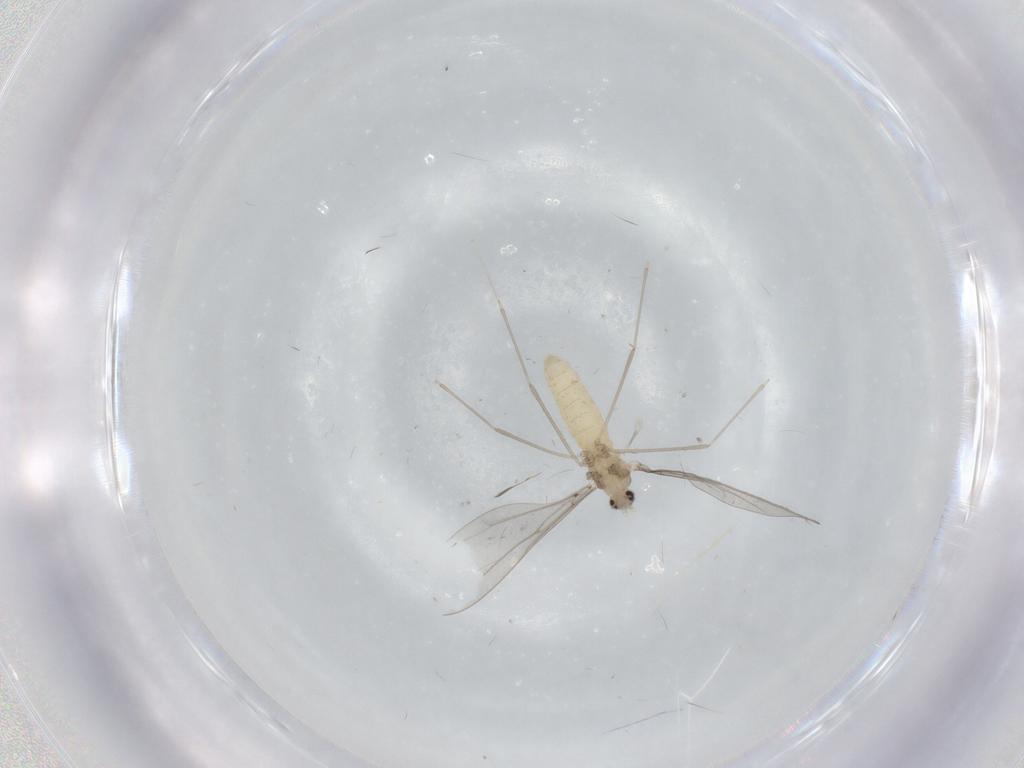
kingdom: Animalia
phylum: Arthropoda
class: Insecta
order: Diptera
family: Cecidomyiidae
